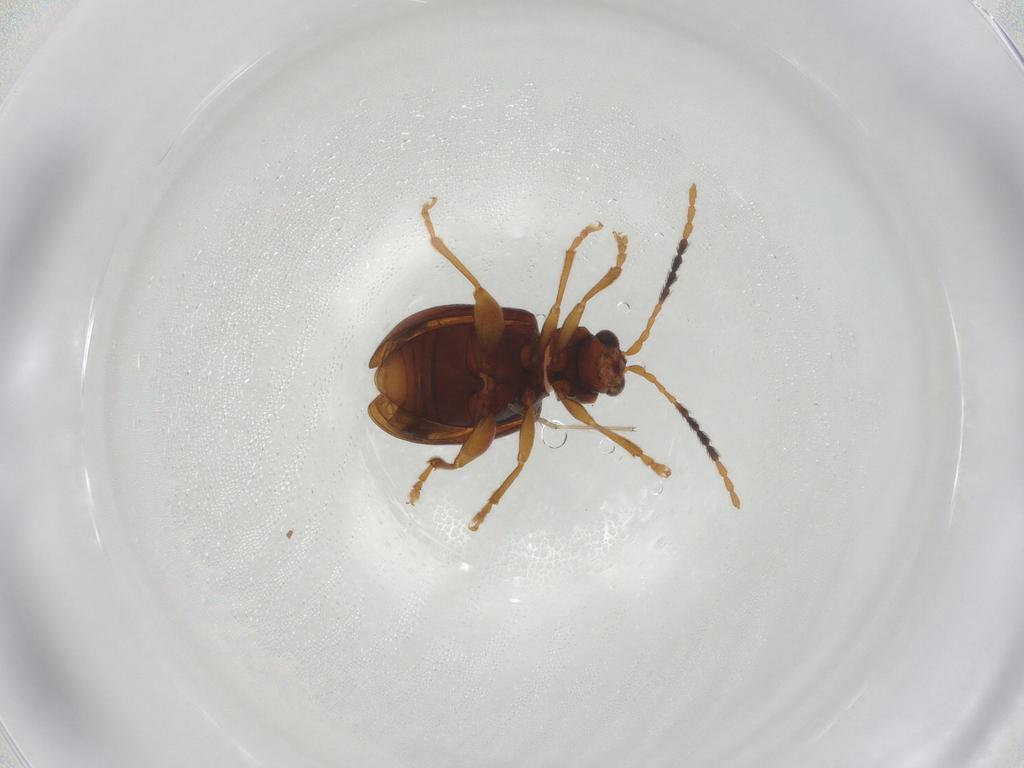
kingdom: Animalia
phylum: Arthropoda
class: Insecta
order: Coleoptera
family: Chrysomelidae
